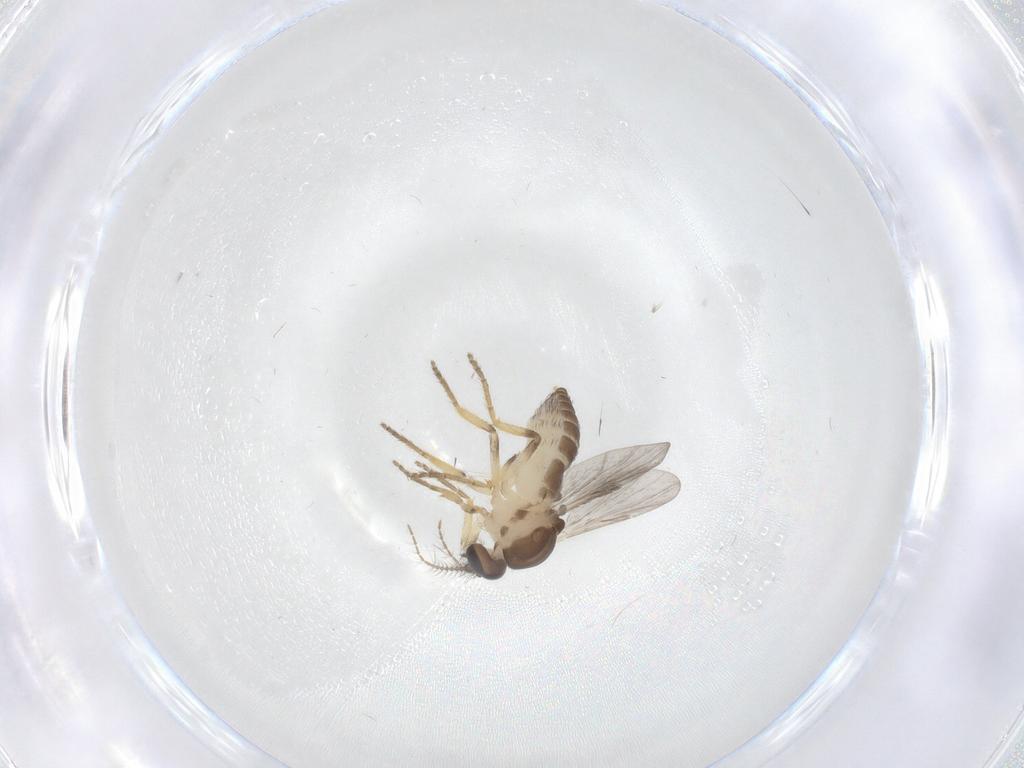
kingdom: Animalia
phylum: Arthropoda
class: Insecta
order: Diptera
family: Ceratopogonidae
